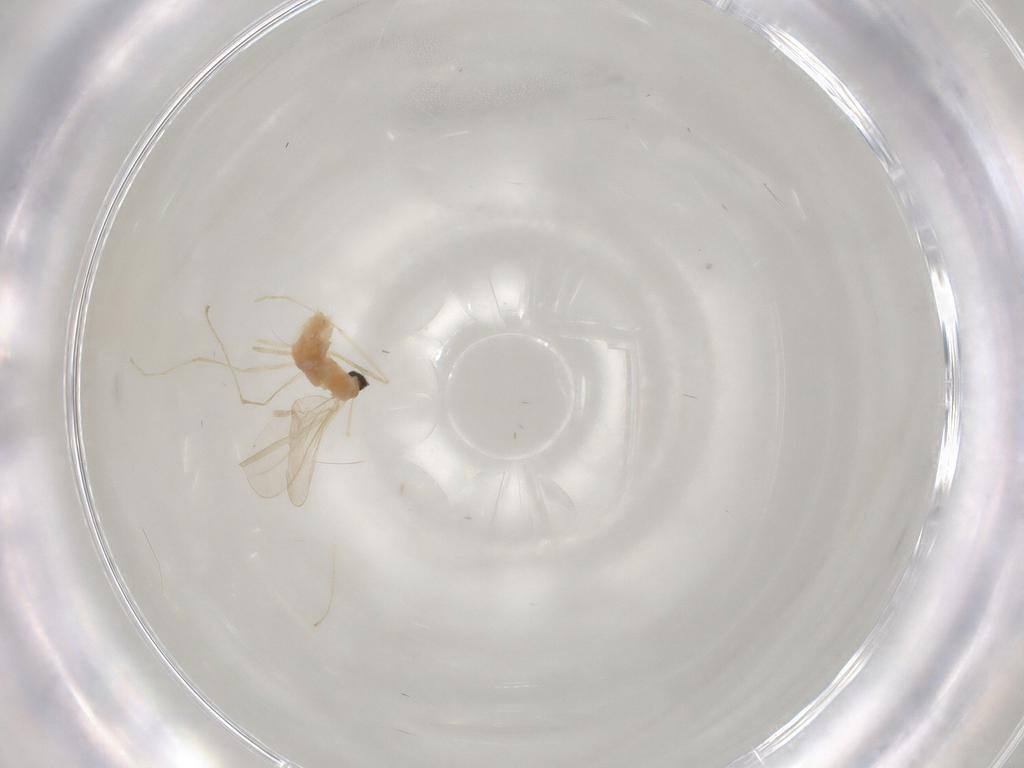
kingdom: Animalia
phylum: Arthropoda
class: Insecta
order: Diptera
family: Cecidomyiidae
